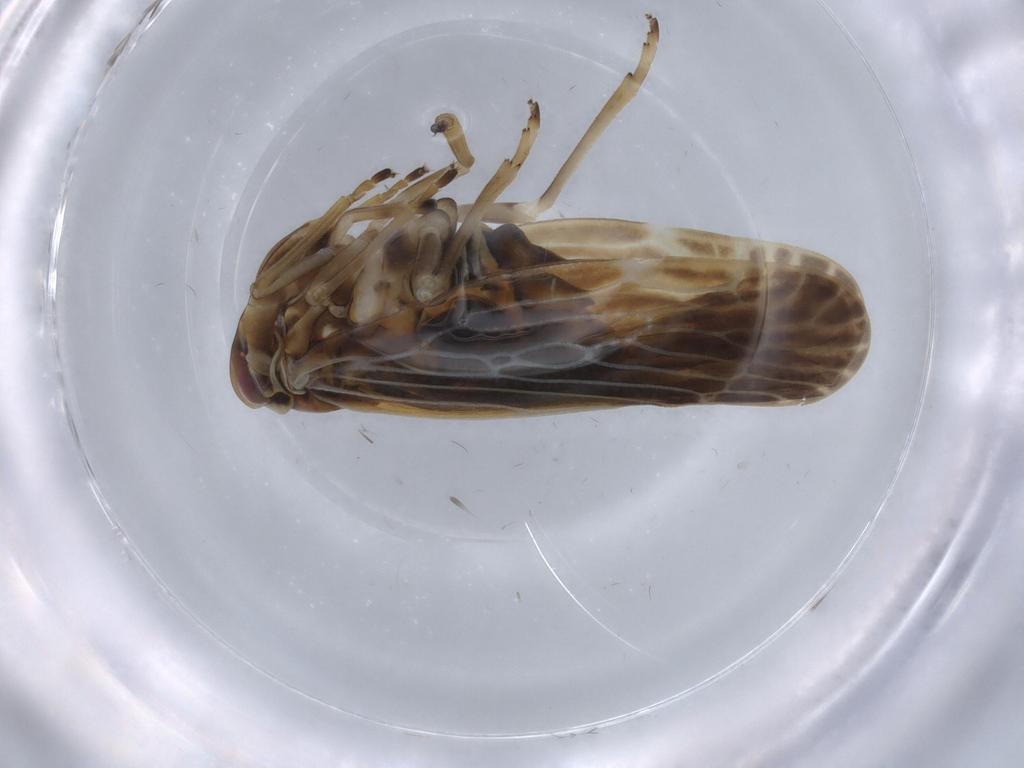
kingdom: Animalia
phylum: Arthropoda
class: Insecta
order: Hemiptera
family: Derbidae
